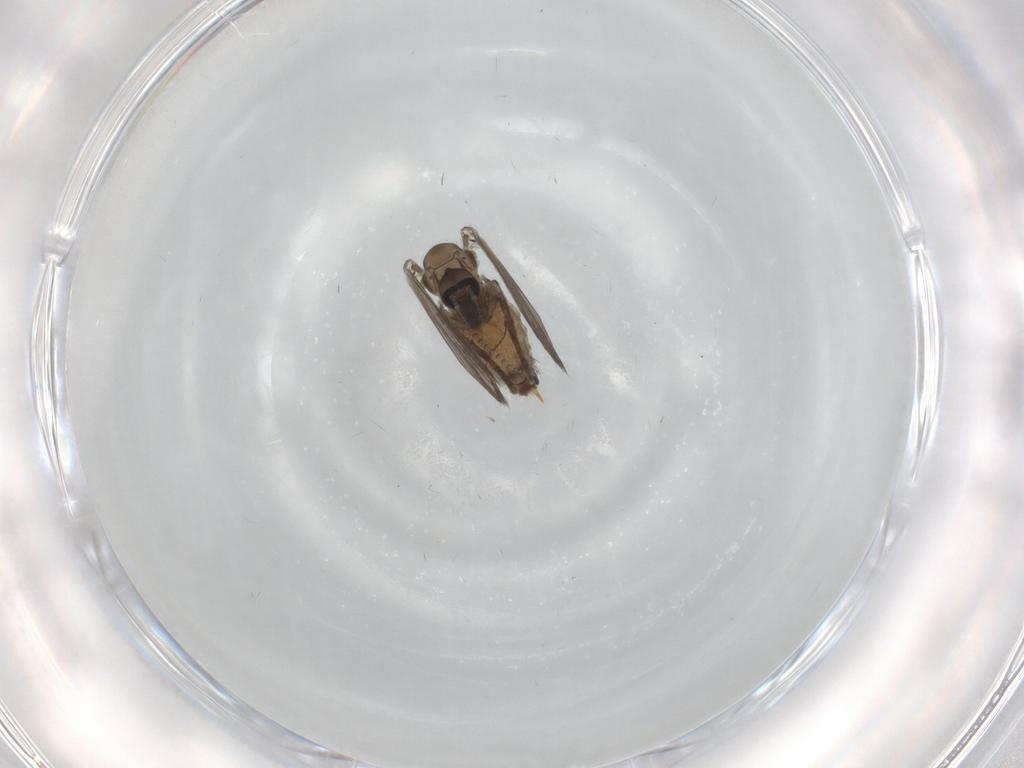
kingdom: Animalia
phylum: Arthropoda
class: Insecta
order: Diptera
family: Psychodidae
